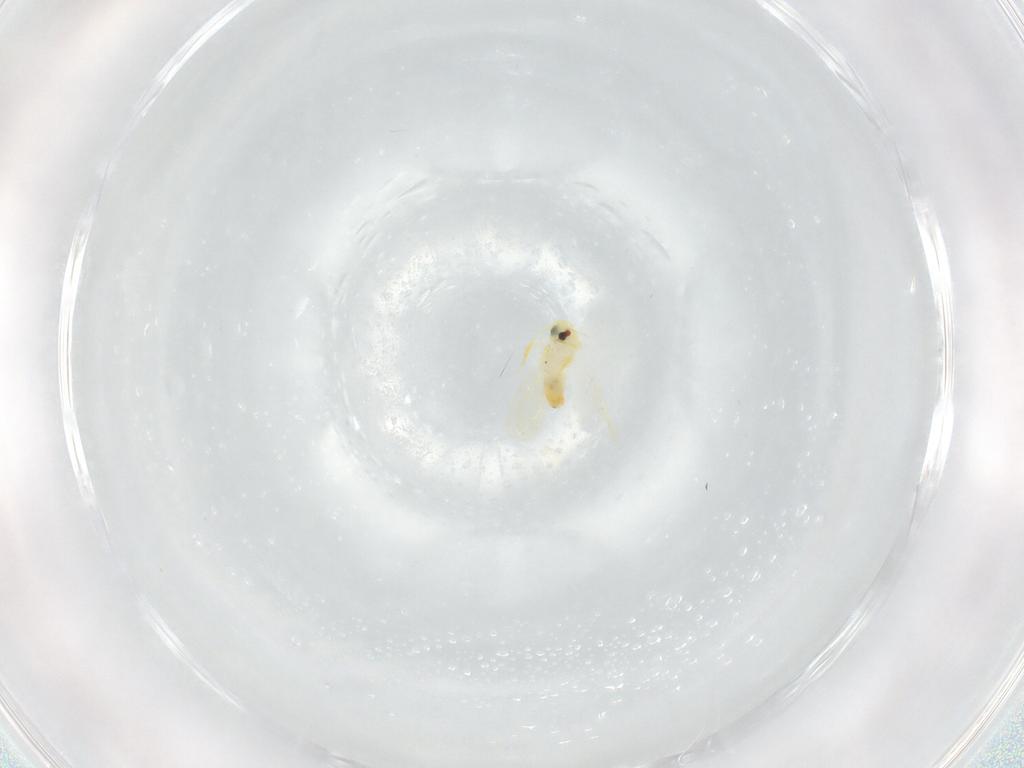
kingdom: Animalia
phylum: Arthropoda
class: Insecta
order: Hemiptera
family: Aleyrodidae
